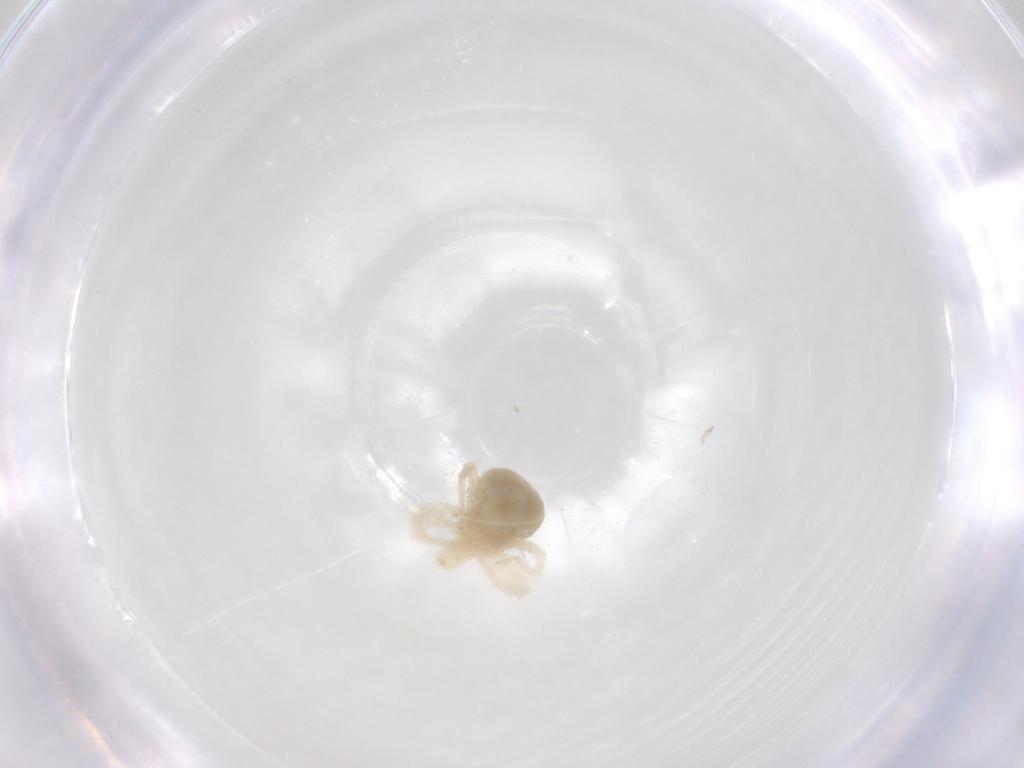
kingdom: Animalia
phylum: Arthropoda
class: Arachnida
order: Trombidiformes
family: Anystidae
